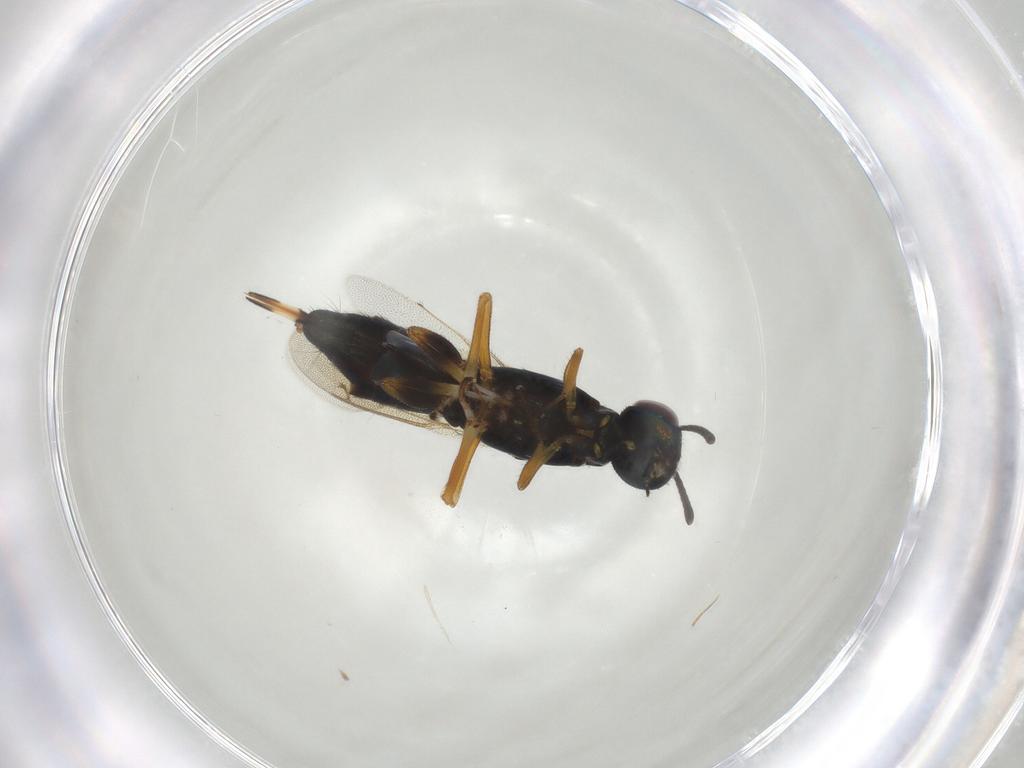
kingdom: Animalia
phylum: Arthropoda
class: Insecta
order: Hymenoptera
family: Eupelmidae
